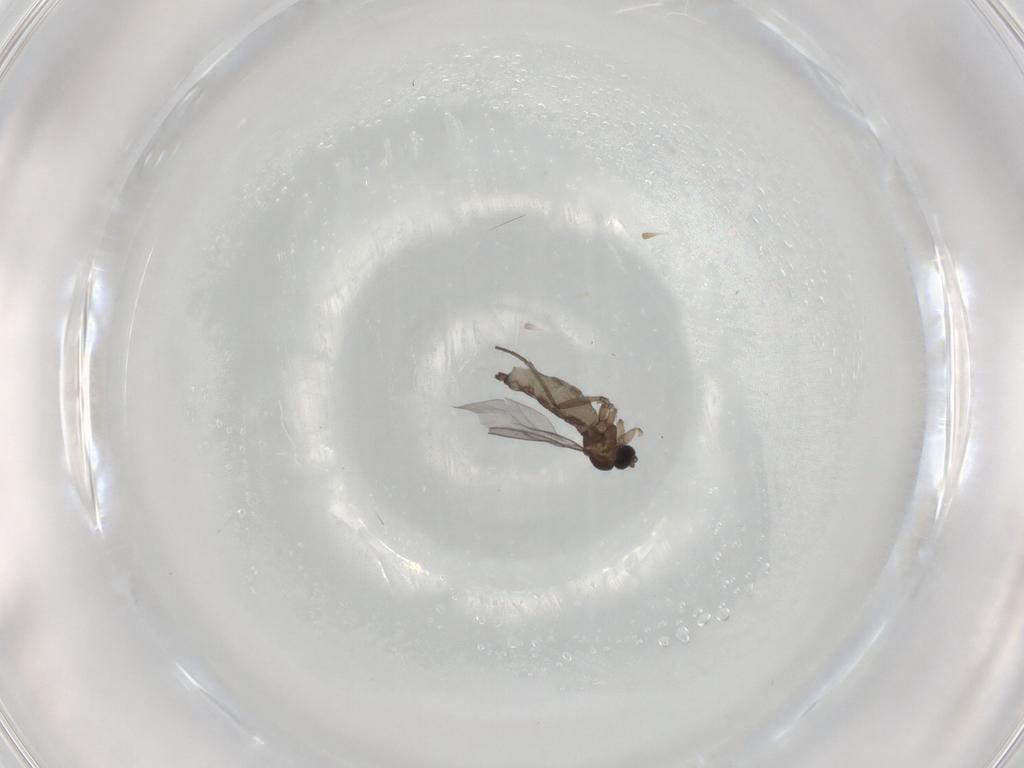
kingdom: Animalia
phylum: Arthropoda
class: Insecta
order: Diptera
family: Sciaridae
